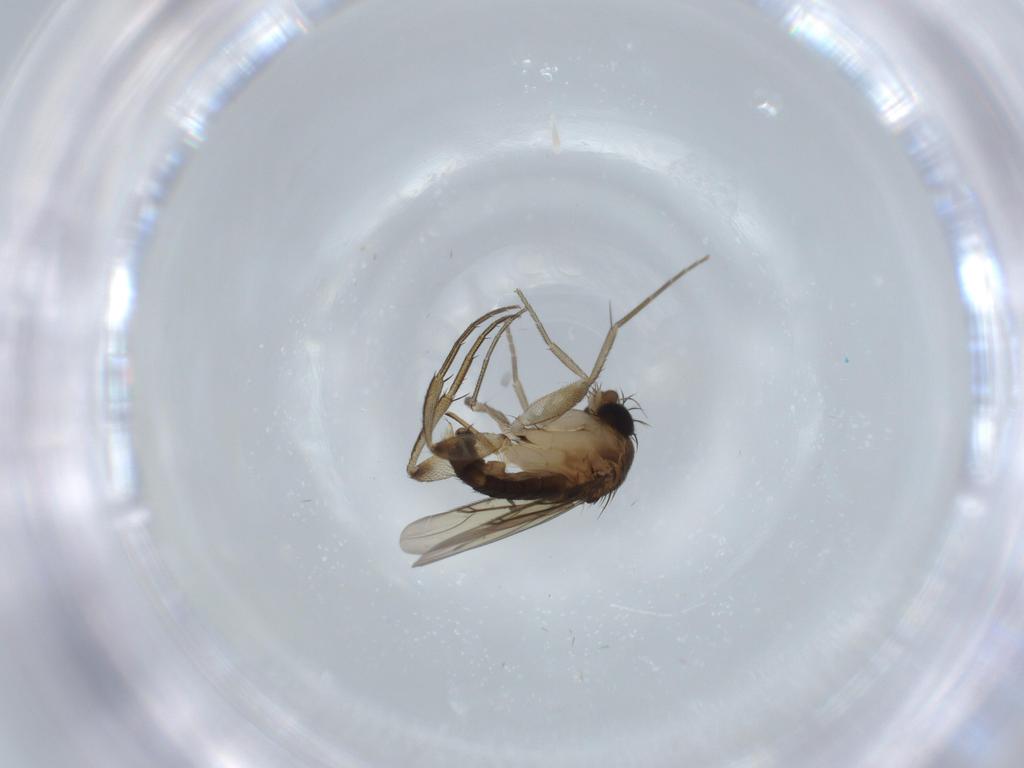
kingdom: Animalia
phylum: Arthropoda
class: Insecta
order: Diptera
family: Phoridae
